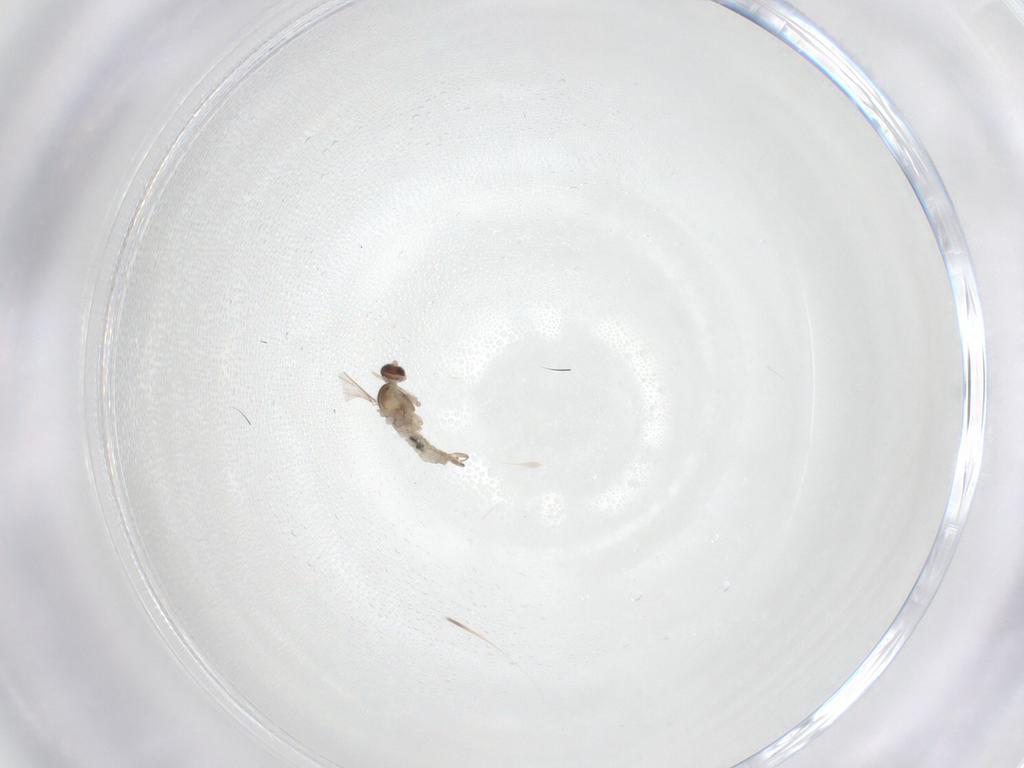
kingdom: Animalia
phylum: Arthropoda
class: Insecta
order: Diptera
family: Cecidomyiidae
